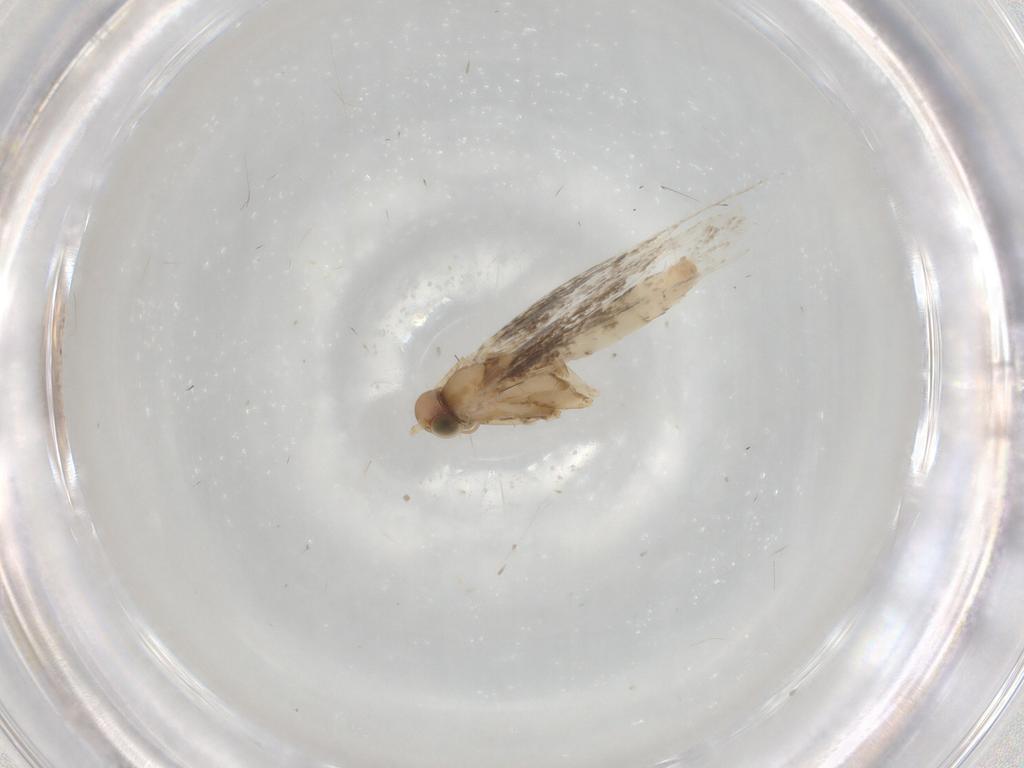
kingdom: Animalia
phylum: Arthropoda
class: Insecta
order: Lepidoptera
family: Gracillariidae
